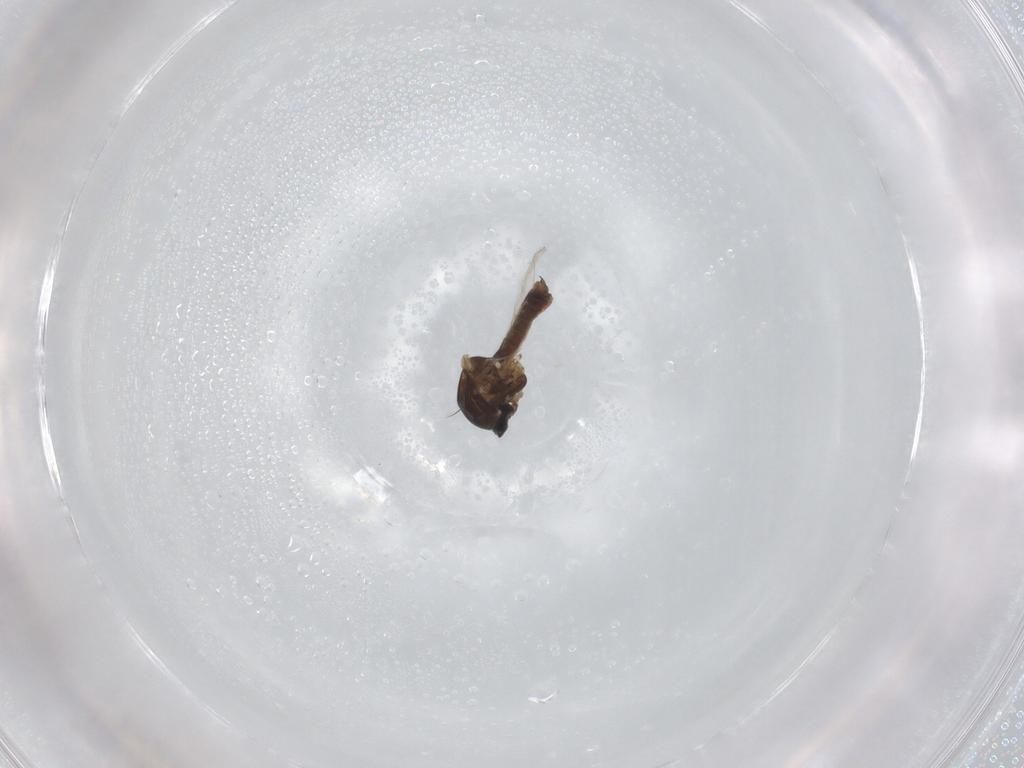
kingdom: Animalia
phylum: Arthropoda
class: Insecta
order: Diptera
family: Ceratopogonidae
